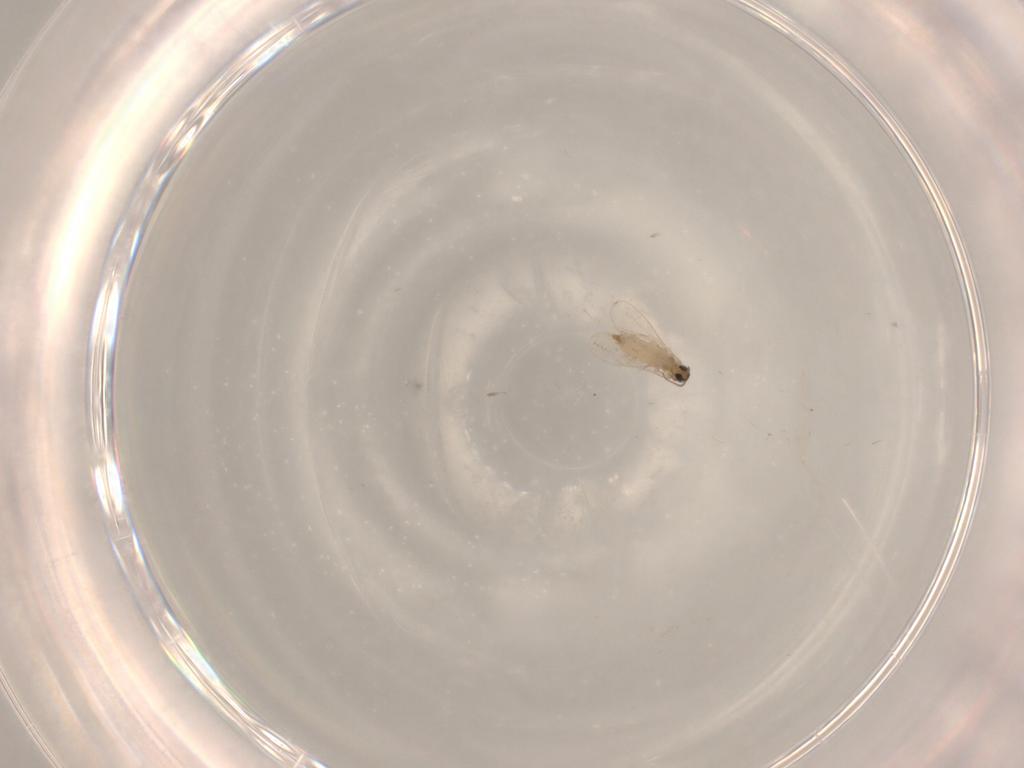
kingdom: Animalia
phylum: Arthropoda
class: Insecta
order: Diptera
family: Cecidomyiidae
